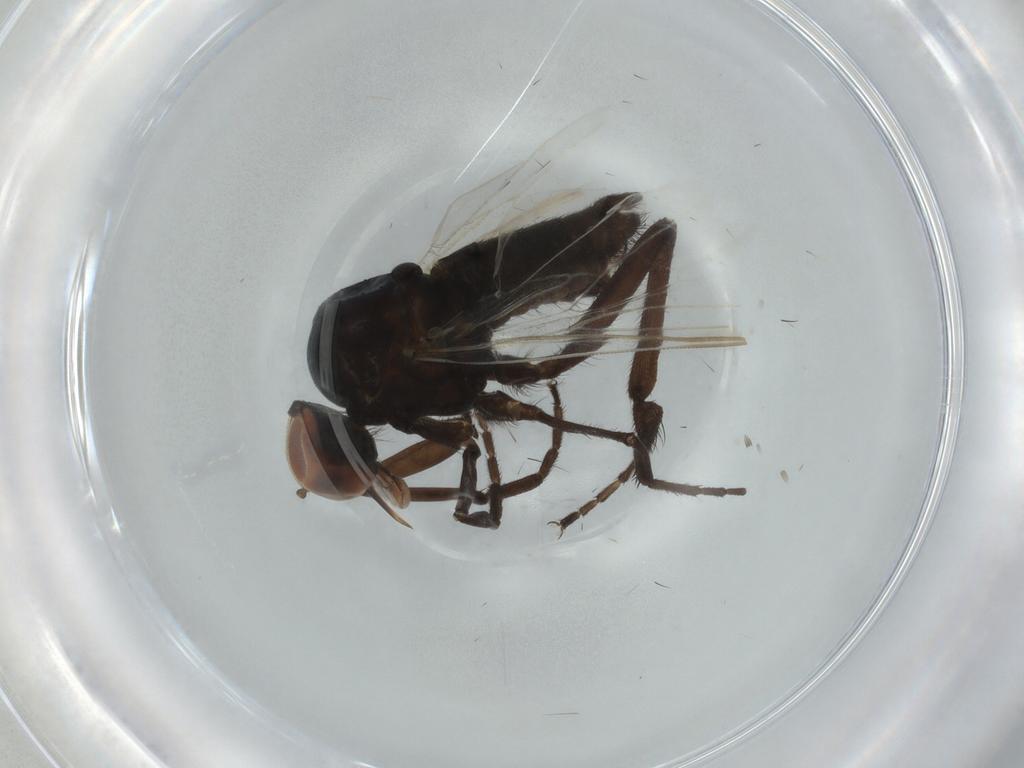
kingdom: Animalia
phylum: Arthropoda
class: Insecta
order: Diptera
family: Empididae
